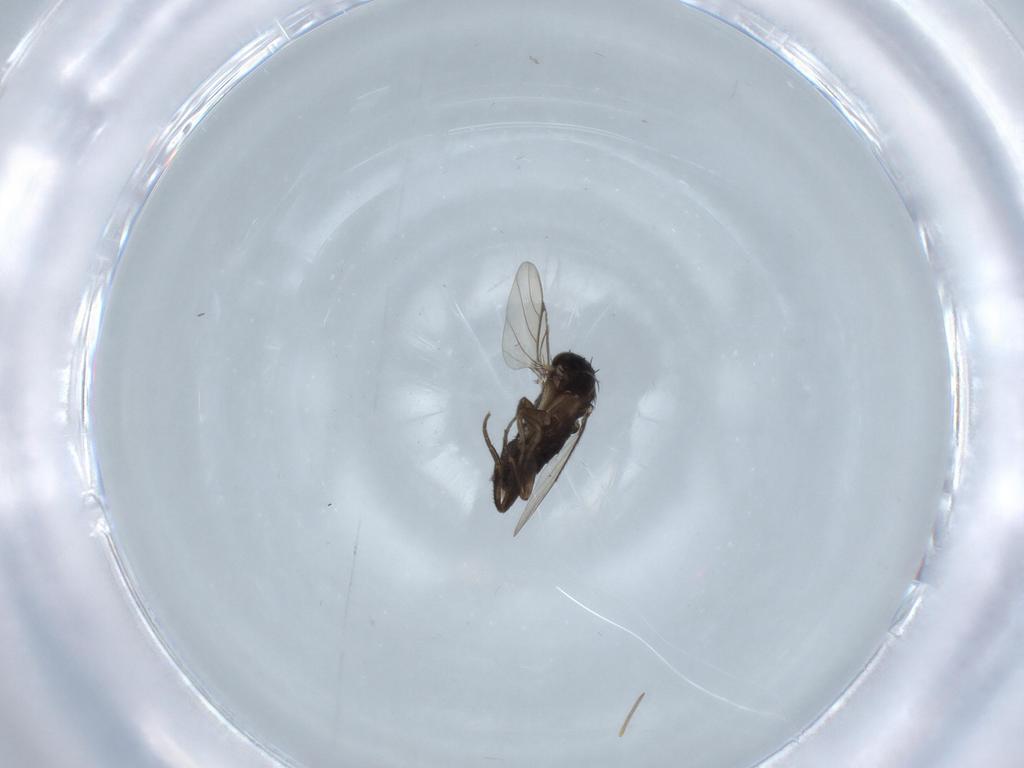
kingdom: Animalia
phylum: Arthropoda
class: Insecta
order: Diptera
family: Phoridae
